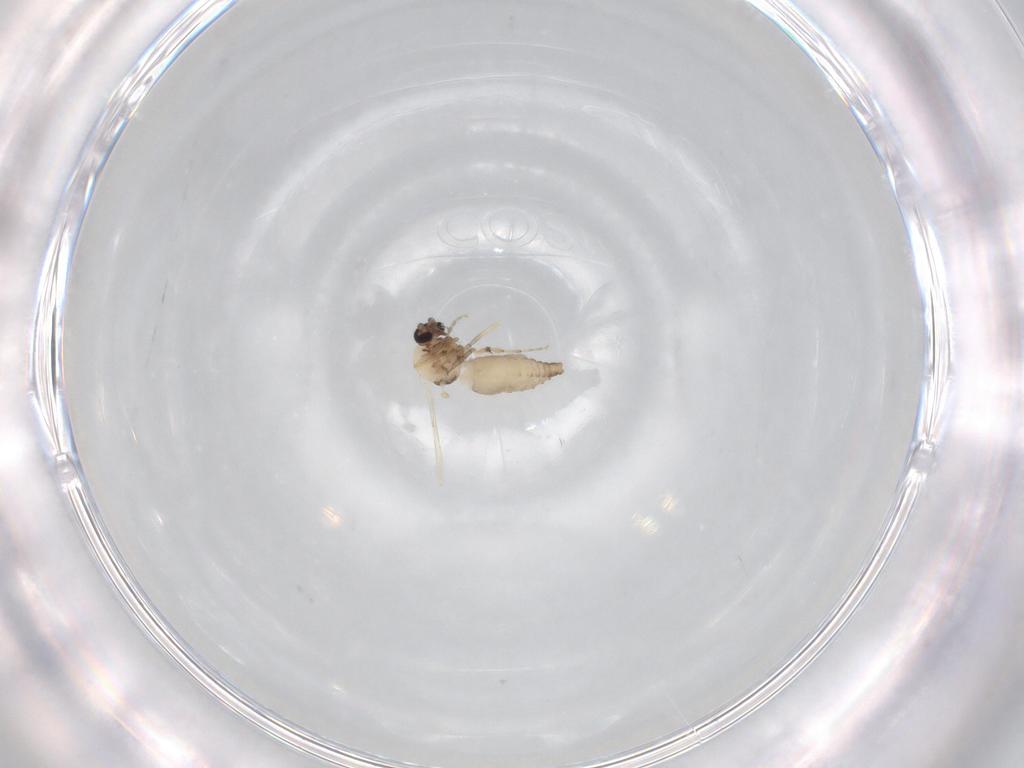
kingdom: Animalia
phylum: Arthropoda
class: Insecta
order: Diptera
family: Ceratopogonidae
